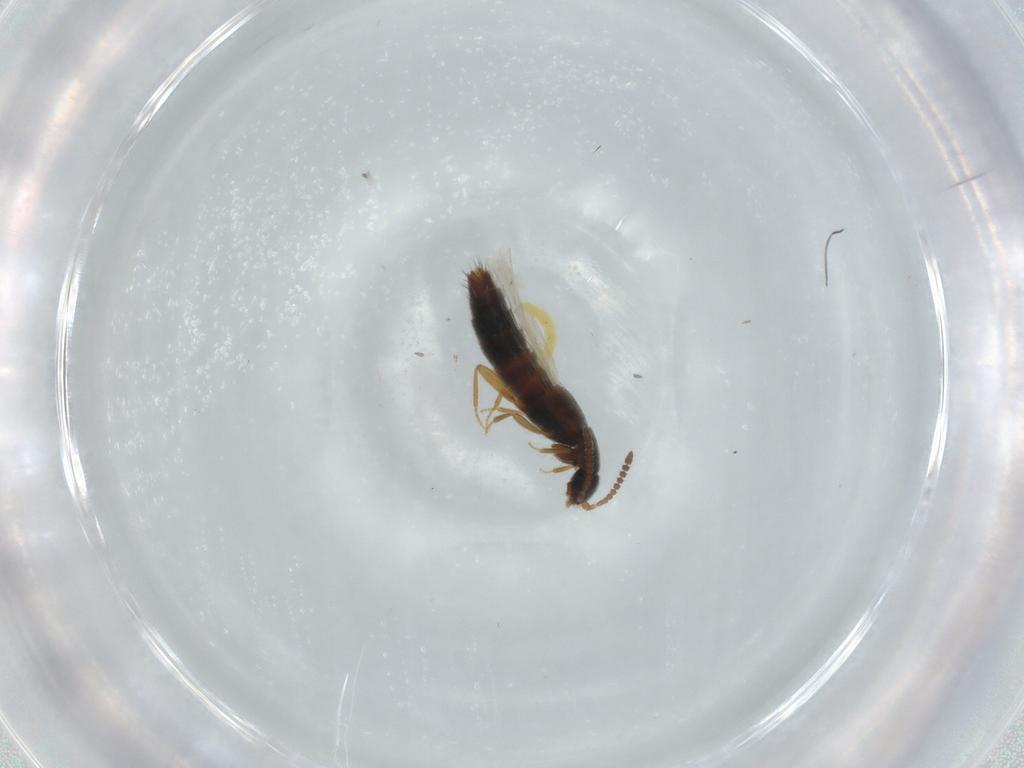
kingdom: Animalia
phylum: Arthropoda
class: Insecta
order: Coleoptera
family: Staphylinidae
